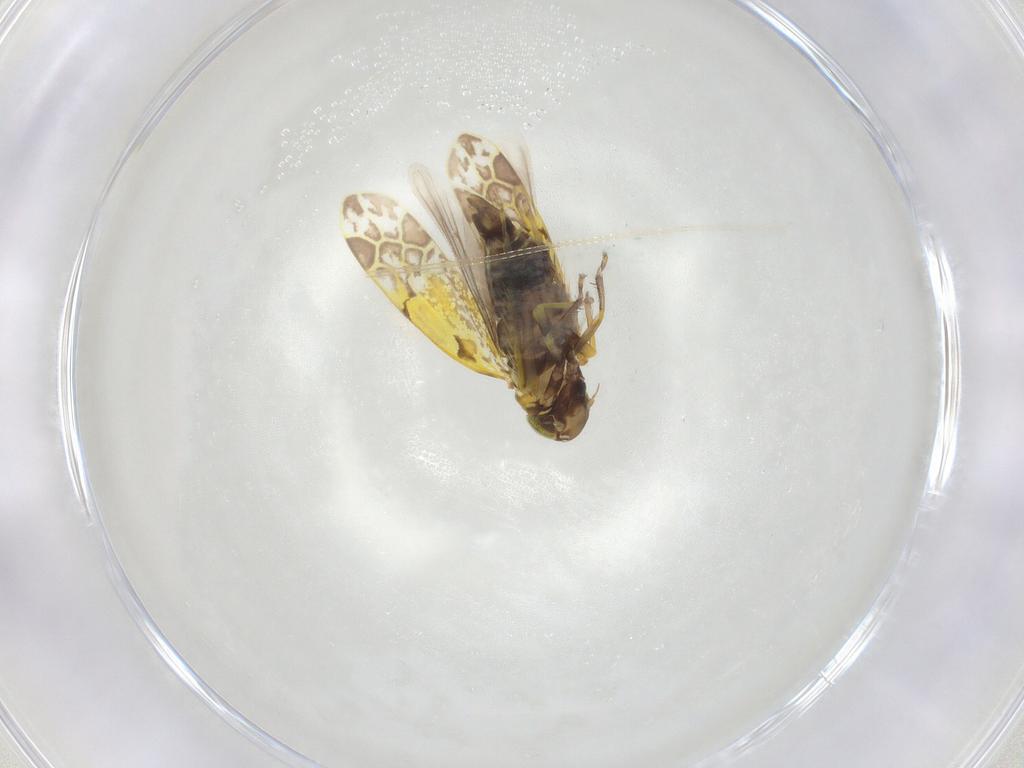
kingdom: Animalia
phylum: Arthropoda
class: Insecta
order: Hemiptera
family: Cicadellidae
